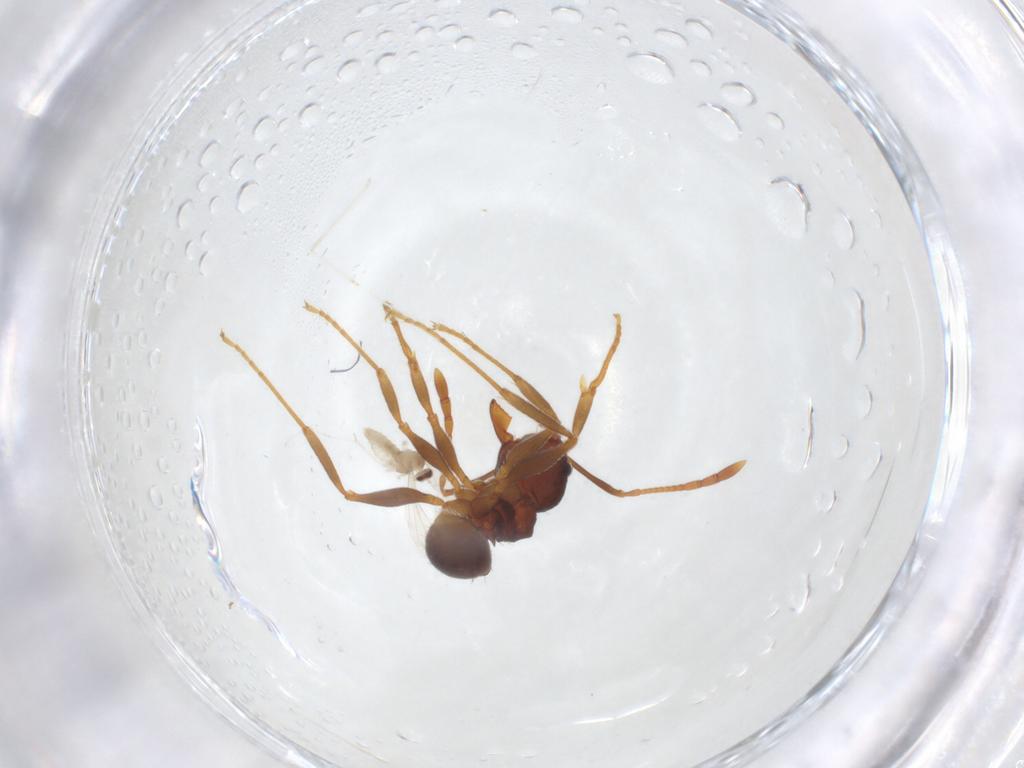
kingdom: Animalia
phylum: Arthropoda
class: Insecta
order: Diptera
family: Cecidomyiidae
